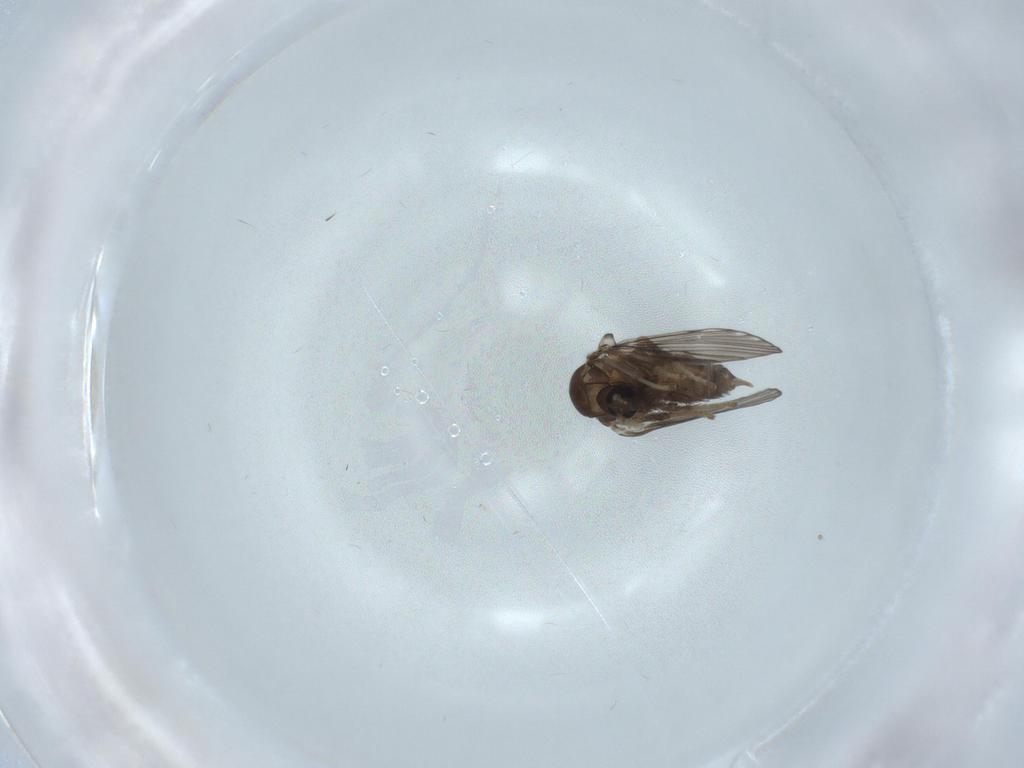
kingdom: Animalia
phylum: Arthropoda
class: Insecta
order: Diptera
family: Psychodidae
